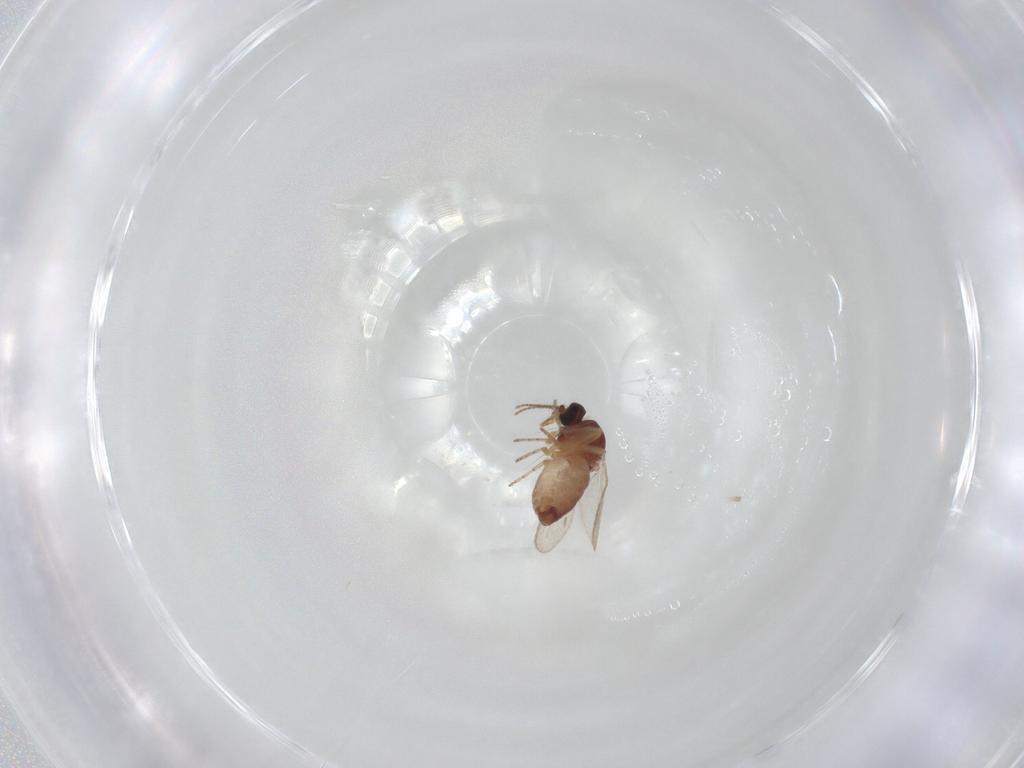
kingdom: Animalia
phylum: Arthropoda
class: Insecta
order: Diptera
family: Ceratopogonidae
